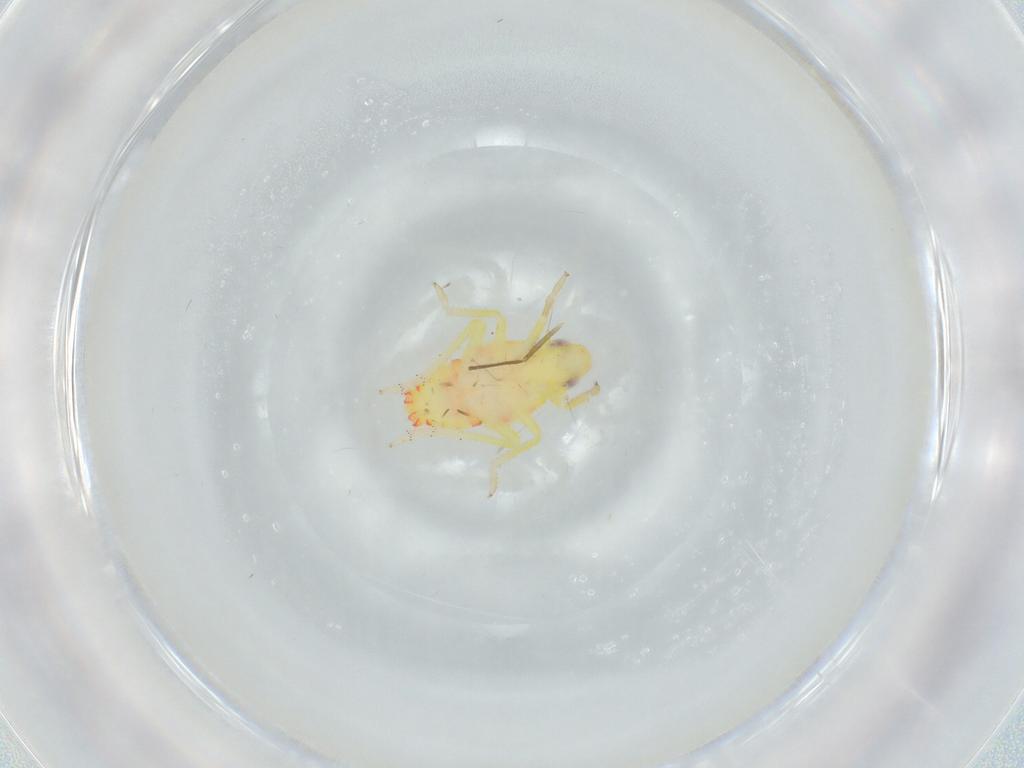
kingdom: Animalia
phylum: Arthropoda
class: Insecta
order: Hemiptera
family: Tropiduchidae
